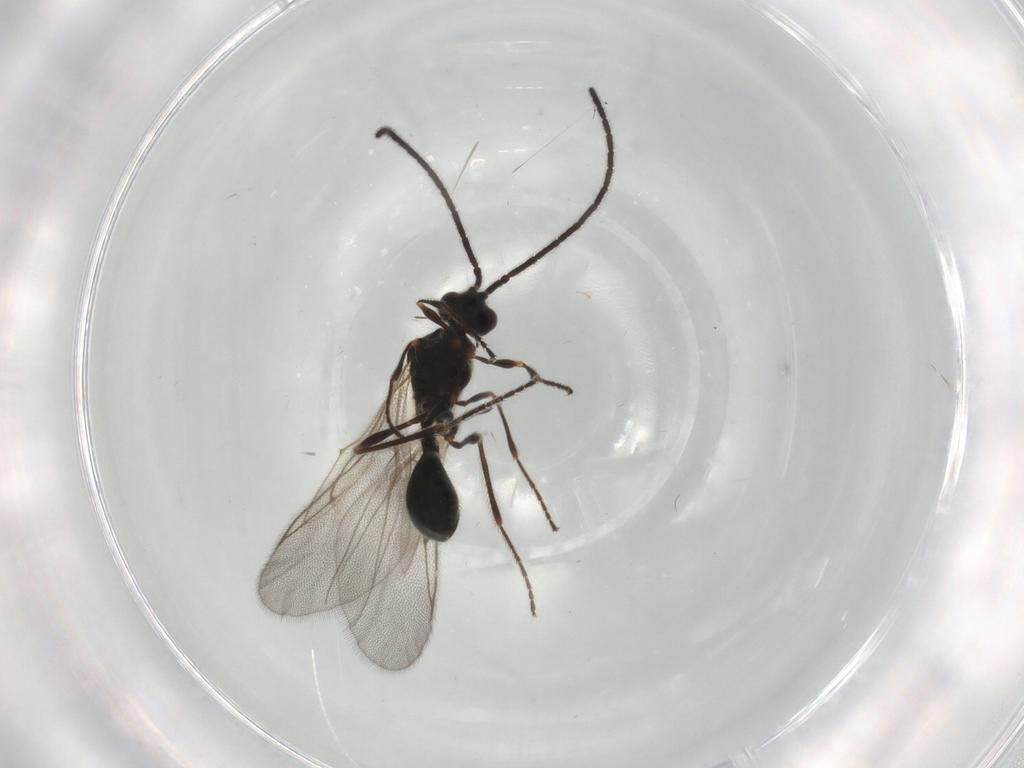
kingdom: Animalia
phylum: Arthropoda
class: Insecta
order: Hymenoptera
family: Diapriidae
